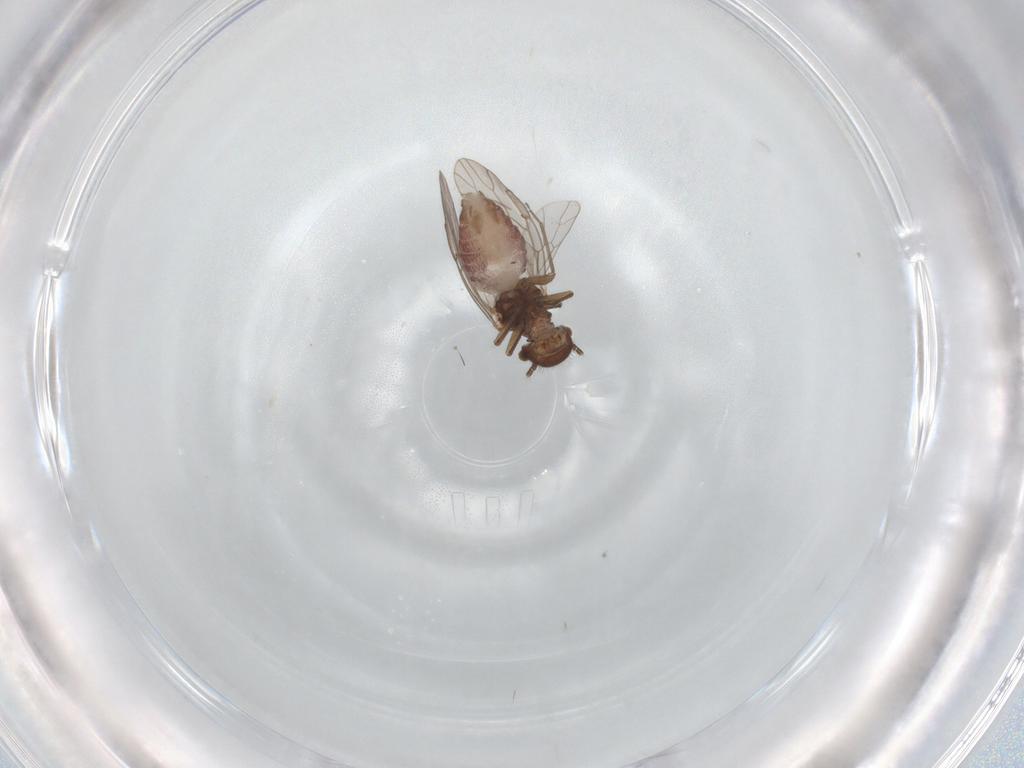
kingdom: Animalia
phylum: Arthropoda
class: Insecta
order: Psocodea
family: Ectopsocidae
